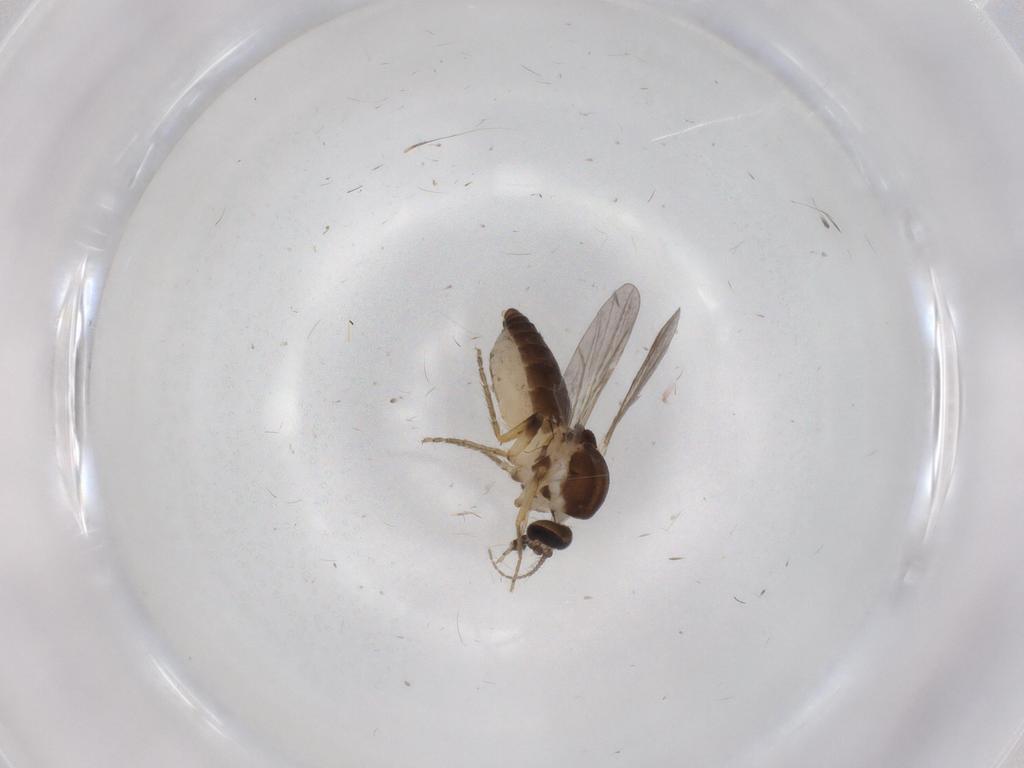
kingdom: Animalia
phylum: Arthropoda
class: Insecta
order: Diptera
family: Ceratopogonidae
